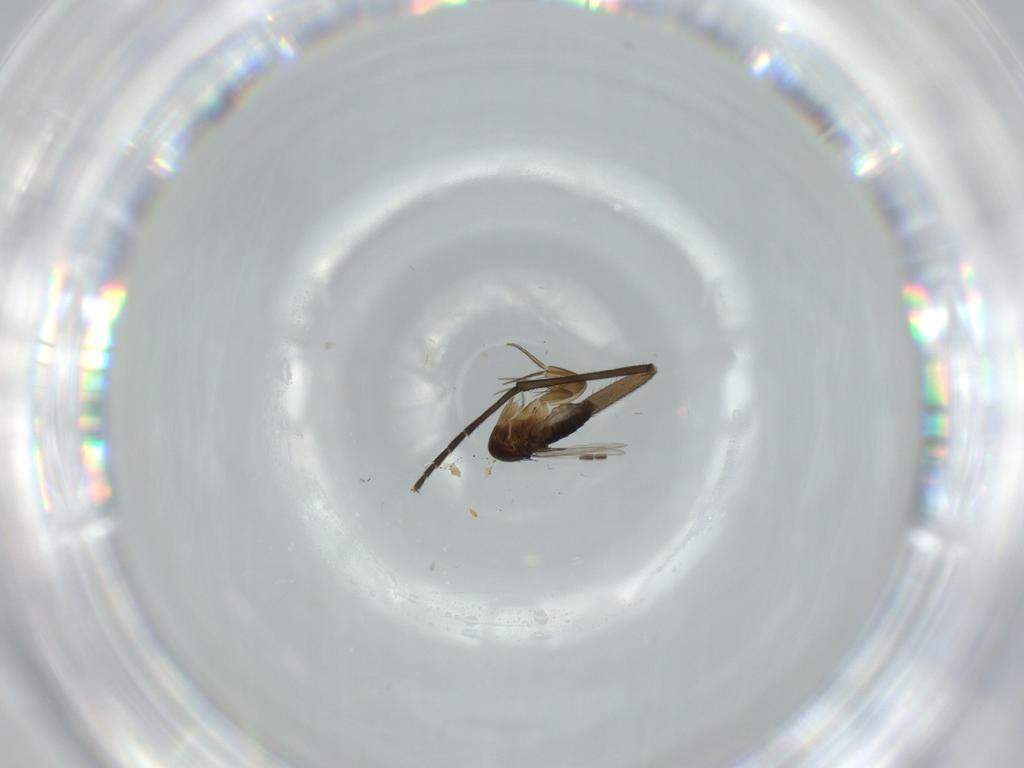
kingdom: Animalia
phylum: Arthropoda
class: Insecta
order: Diptera
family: Phoridae
